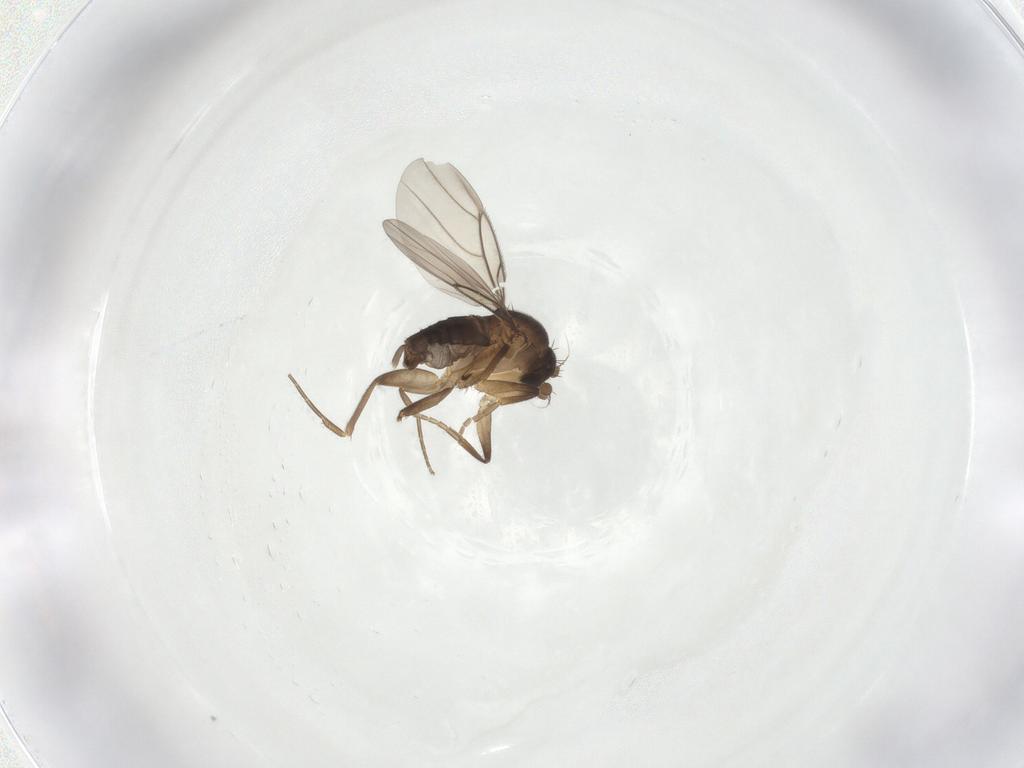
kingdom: Animalia
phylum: Arthropoda
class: Insecta
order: Diptera
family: Phoridae
